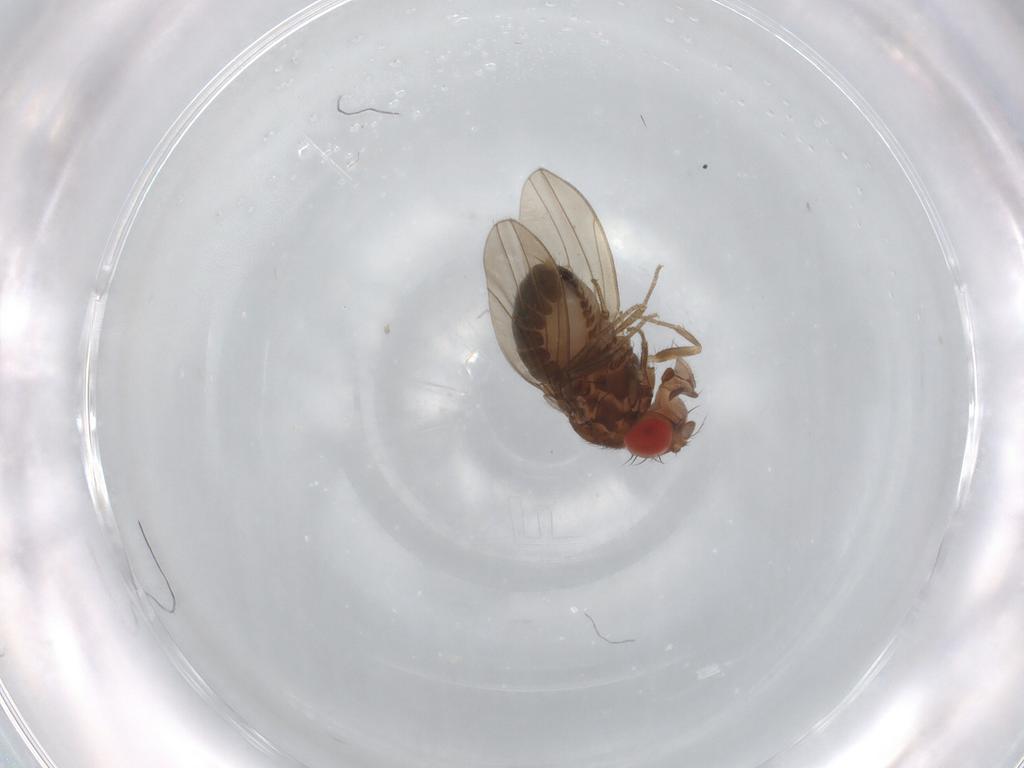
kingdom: Animalia
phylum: Arthropoda
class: Insecta
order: Diptera
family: Drosophilidae
